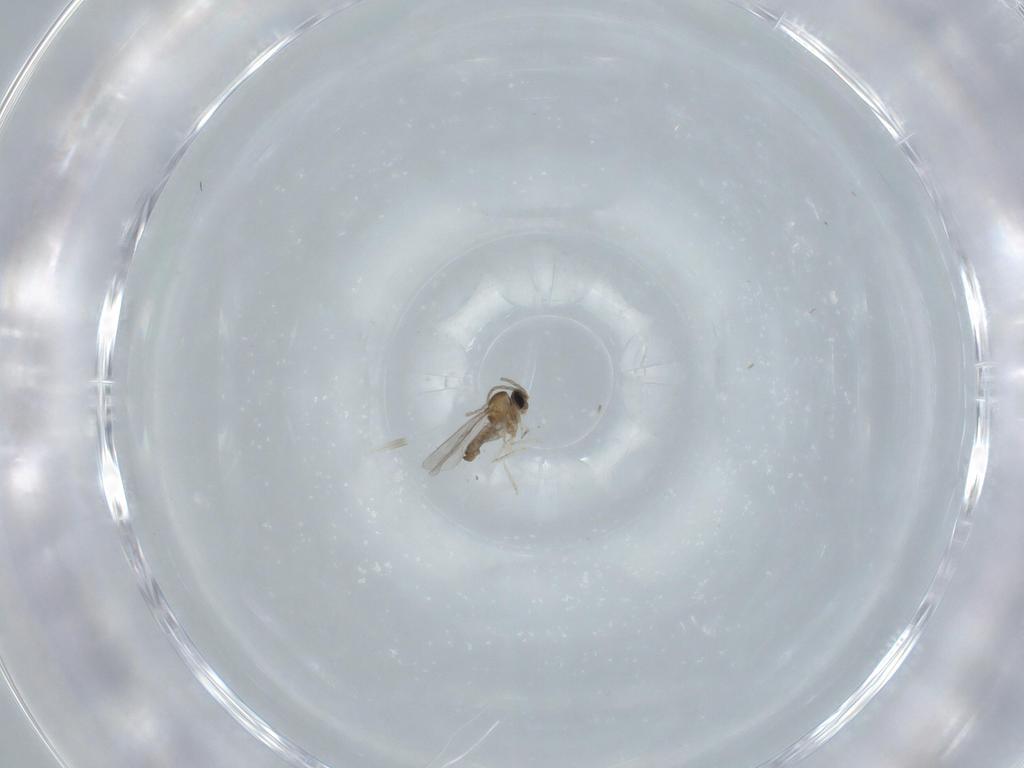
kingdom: Animalia
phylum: Arthropoda
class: Insecta
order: Diptera
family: Cecidomyiidae
